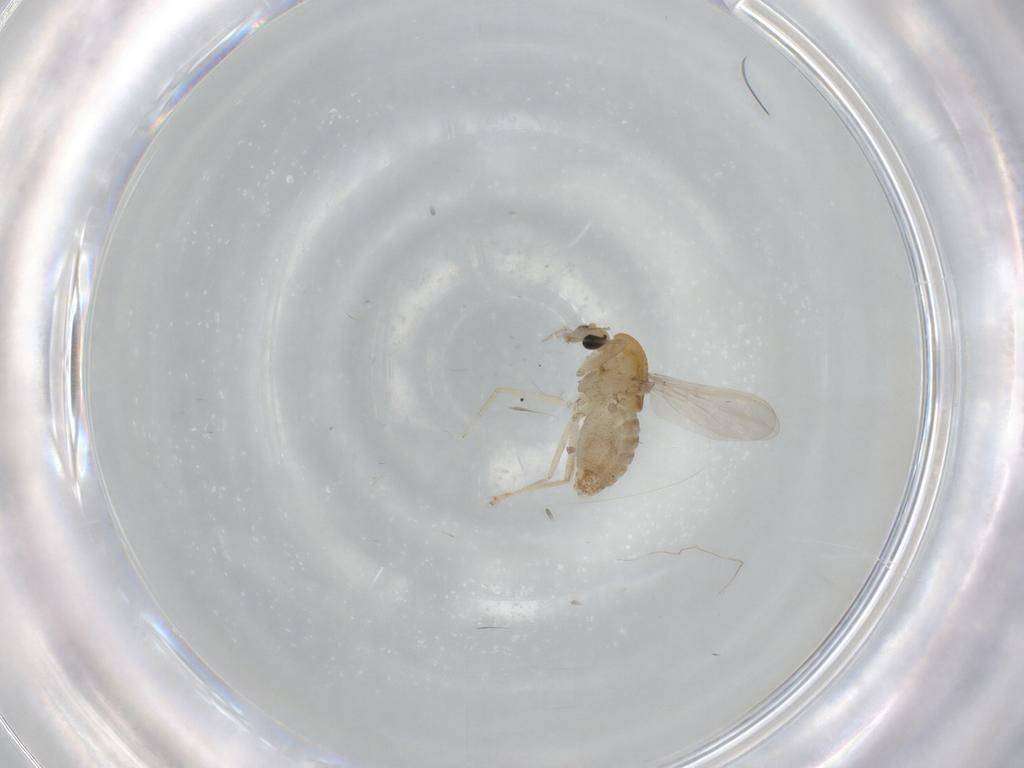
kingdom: Animalia
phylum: Arthropoda
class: Insecta
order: Diptera
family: Chironomidae
